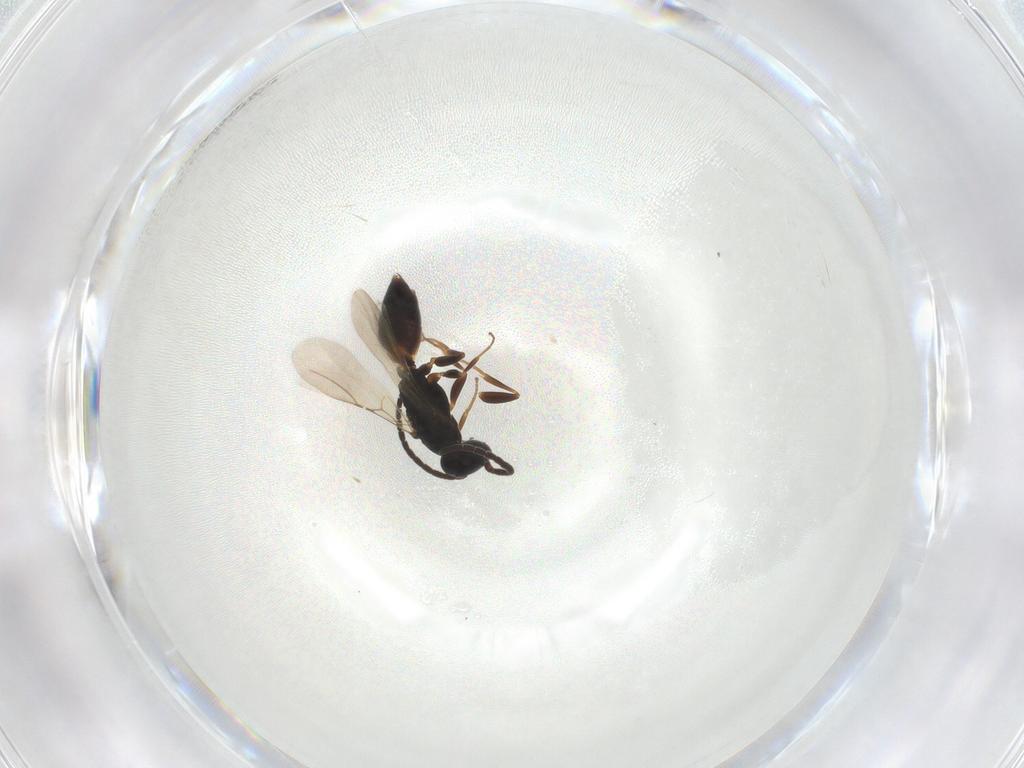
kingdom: Animalia
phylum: Arthropoda
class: Insecta
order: Hymenoptera
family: Bethylidae
